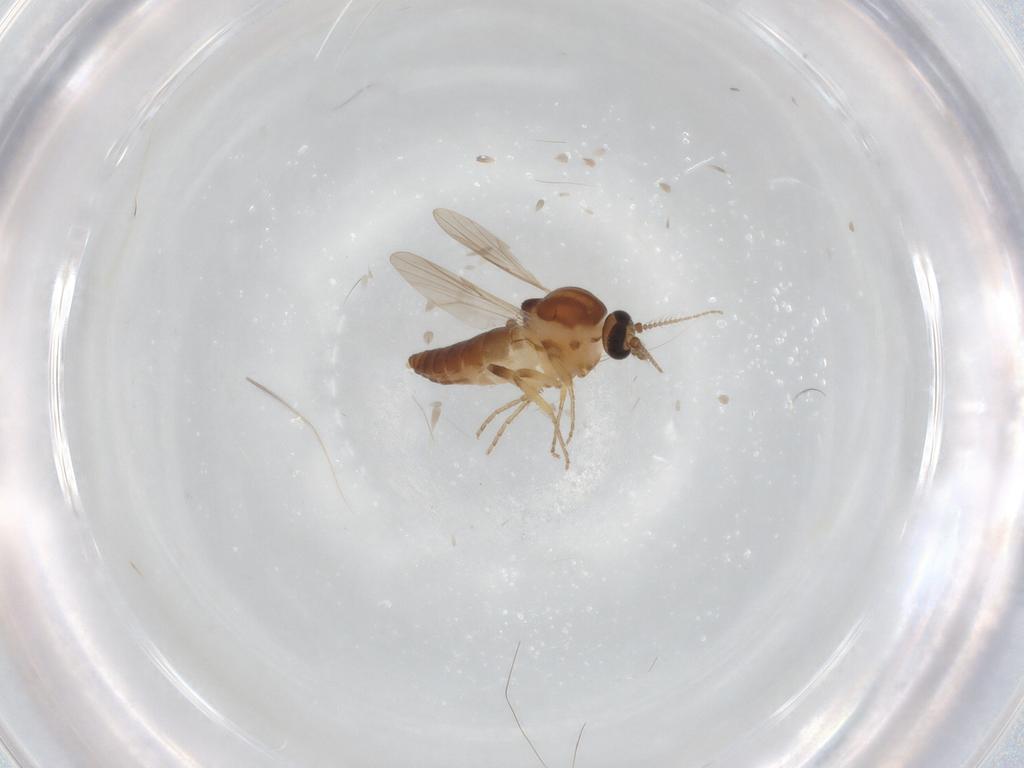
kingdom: Animalia
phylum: Arthropoda
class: Insecta
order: Diptera
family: Ceratopogonidae
